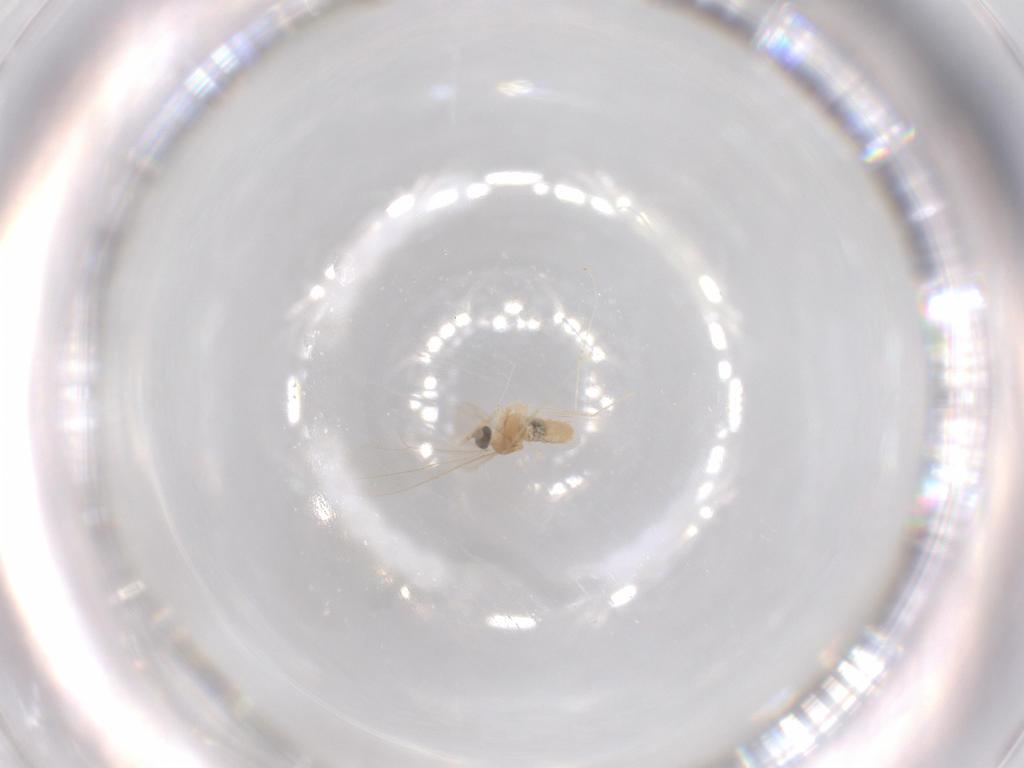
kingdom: Animalia
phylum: Arthropoda
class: Insecta
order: Diptera
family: Cecidomyiidae
